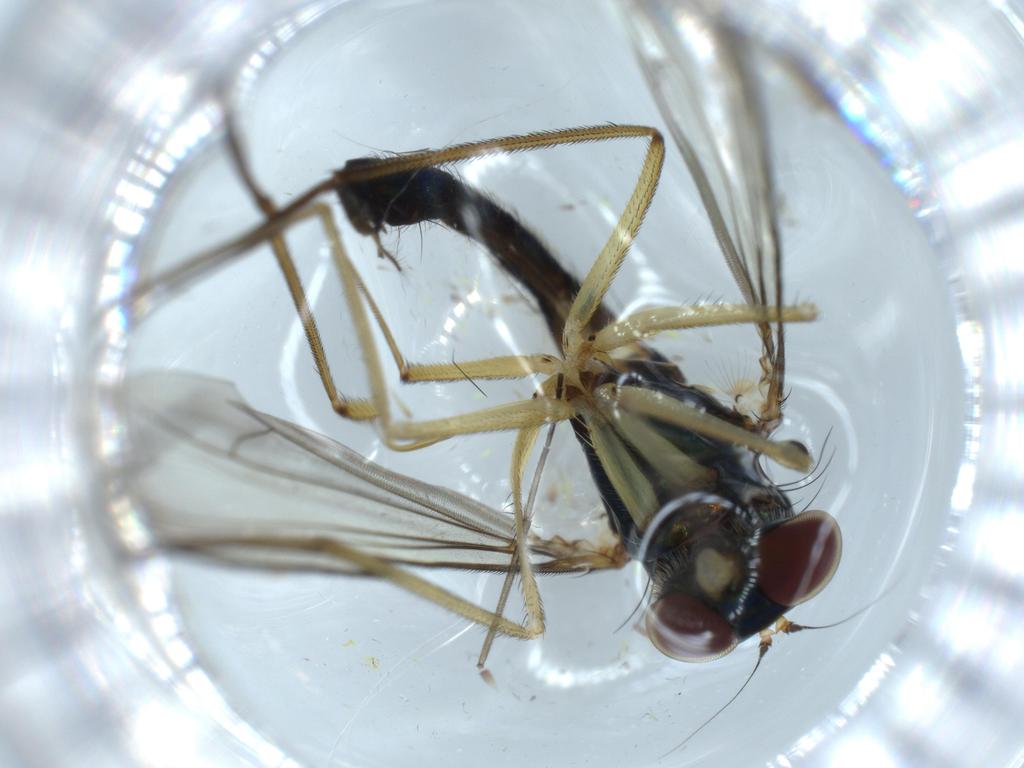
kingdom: Animalia
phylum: Arthropoda
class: Insecta
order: Diptera
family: Dolichopodidae
